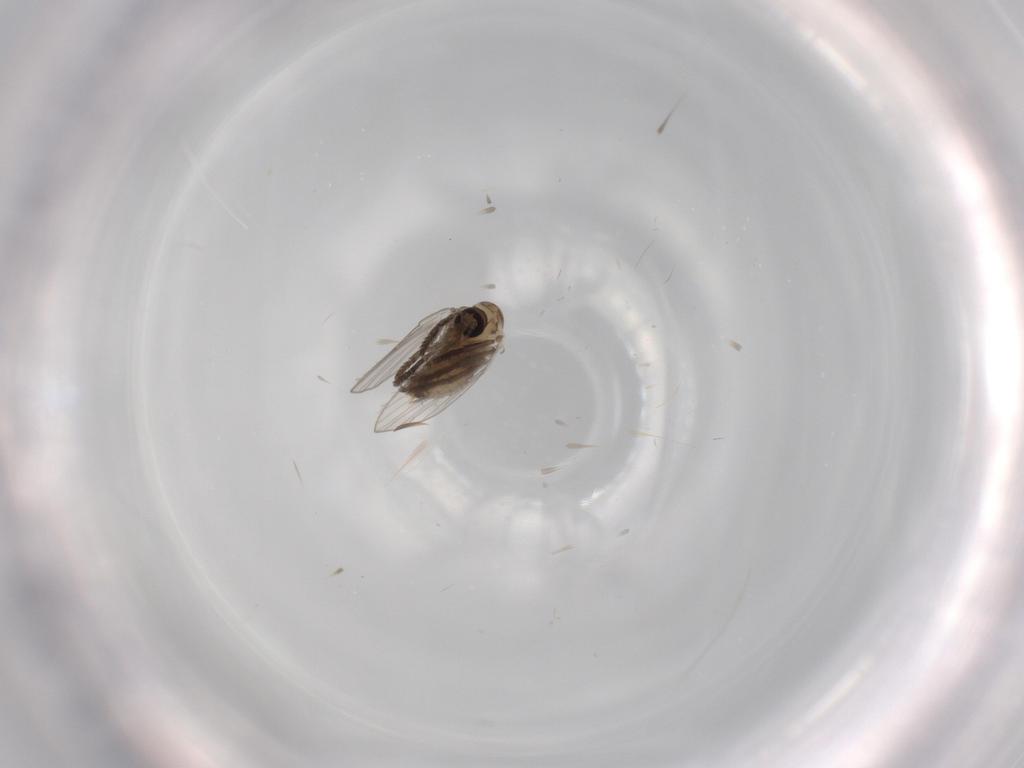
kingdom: Animalia
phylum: Arthropoda
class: Insecta
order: Diptera
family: Psychodidae
